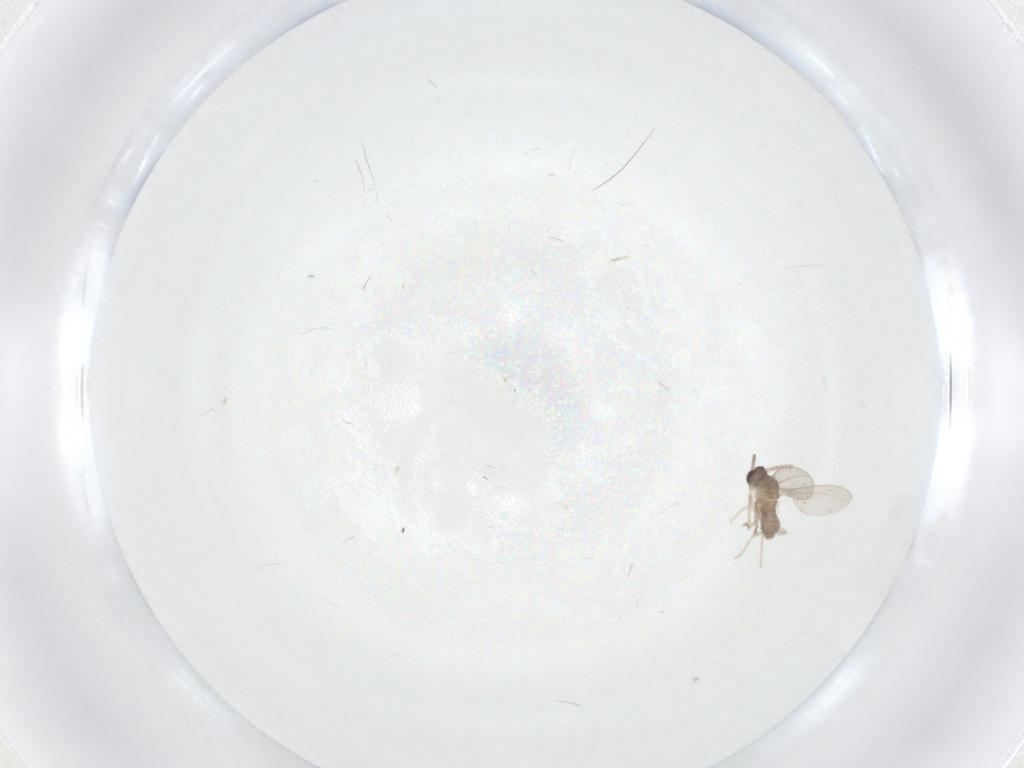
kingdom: Animalia
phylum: Arthropoda
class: Insecta
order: Diptera
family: Cecidomyiidae
